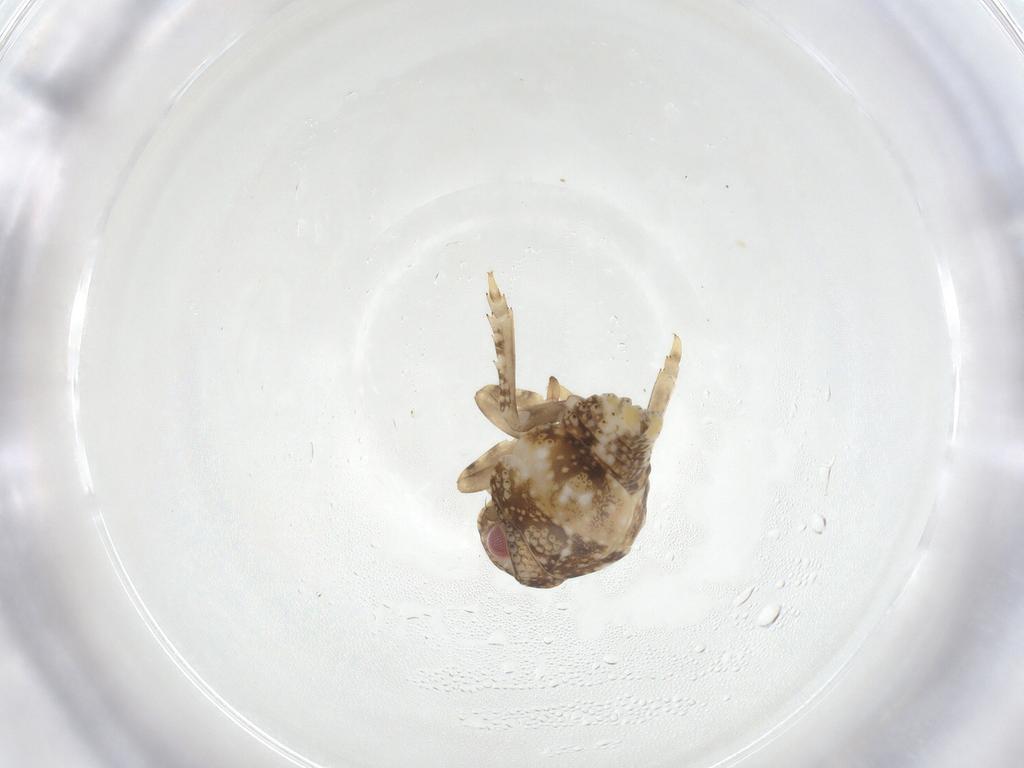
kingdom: Animalia
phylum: Arthropoda
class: Insecta
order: Hemiptera
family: Acanaloniidae
